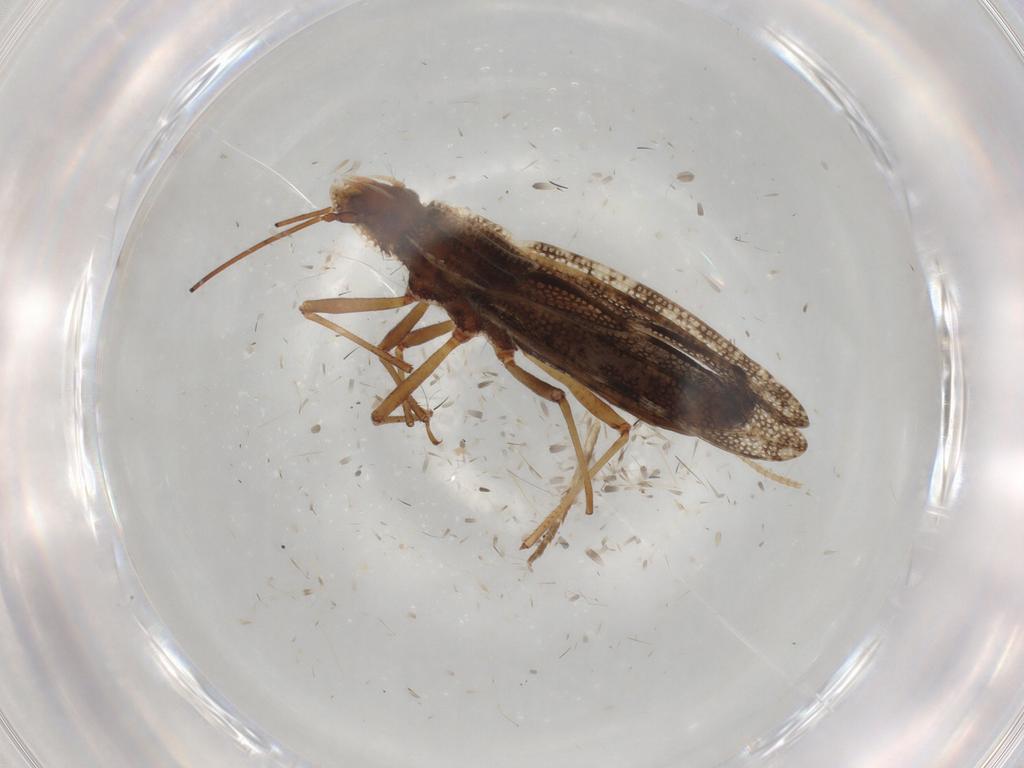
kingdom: Animalia
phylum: Arthropoda
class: Insecta
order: Hemiptera
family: Tingidae
